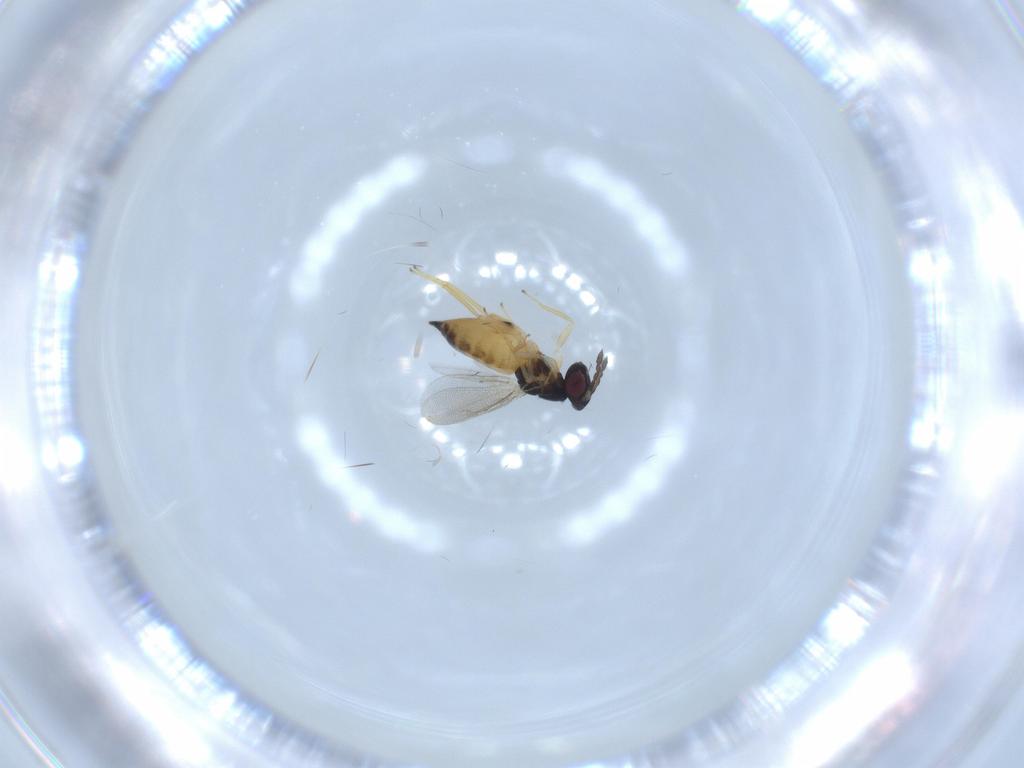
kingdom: Animalia
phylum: Arthropoda
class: Insecta
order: Hymenoptera
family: Eulophidae
